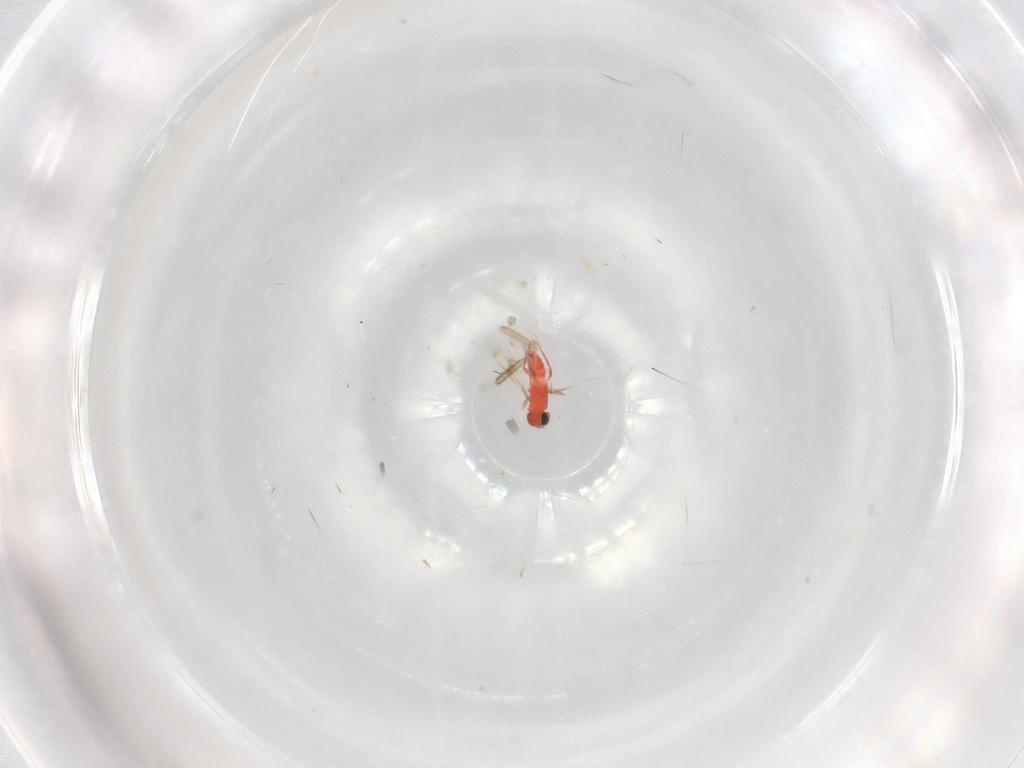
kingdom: Animalia
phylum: Arthropoda
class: Insecta
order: Hymenoptera
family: Trichogrammatidae
